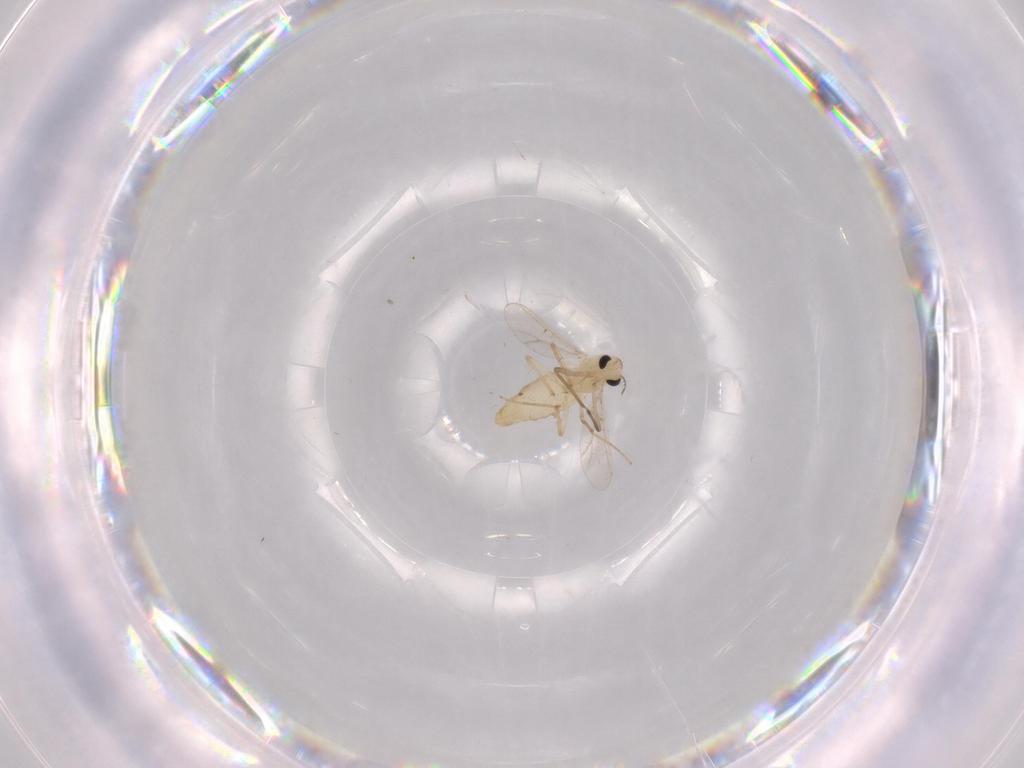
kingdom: Animalia
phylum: Arthropoda
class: Insecta
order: Diptera
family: Chironomidae
